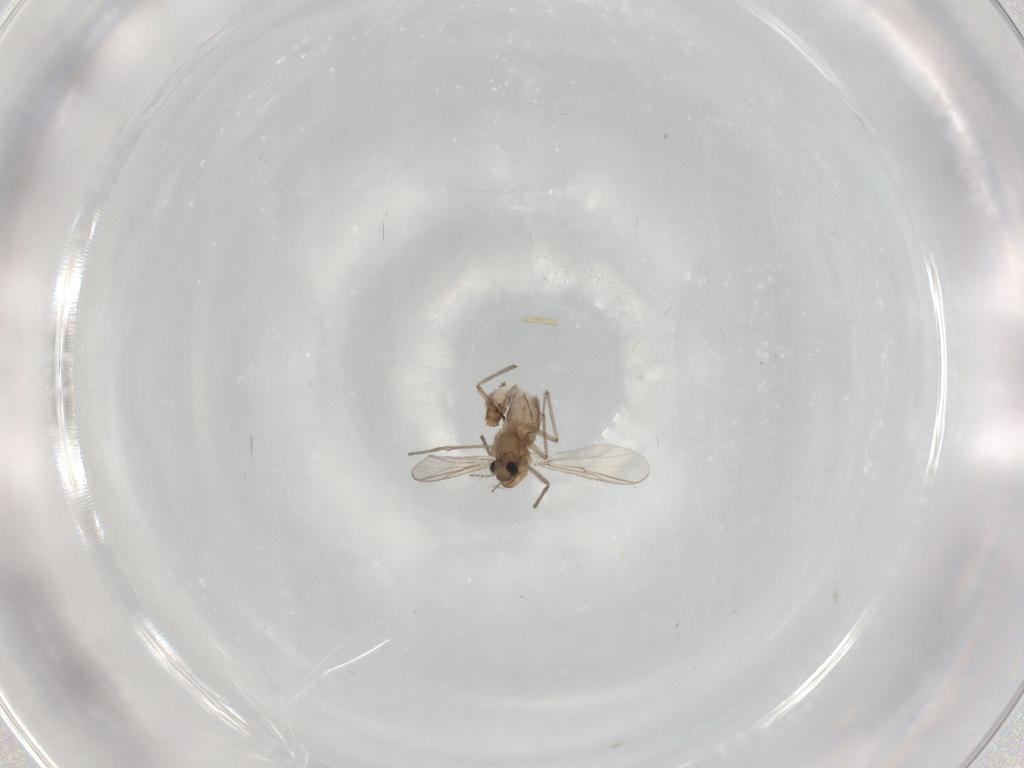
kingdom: Animalia
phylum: Arthropoda
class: Insecta
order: Diptera
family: Chironomidae
